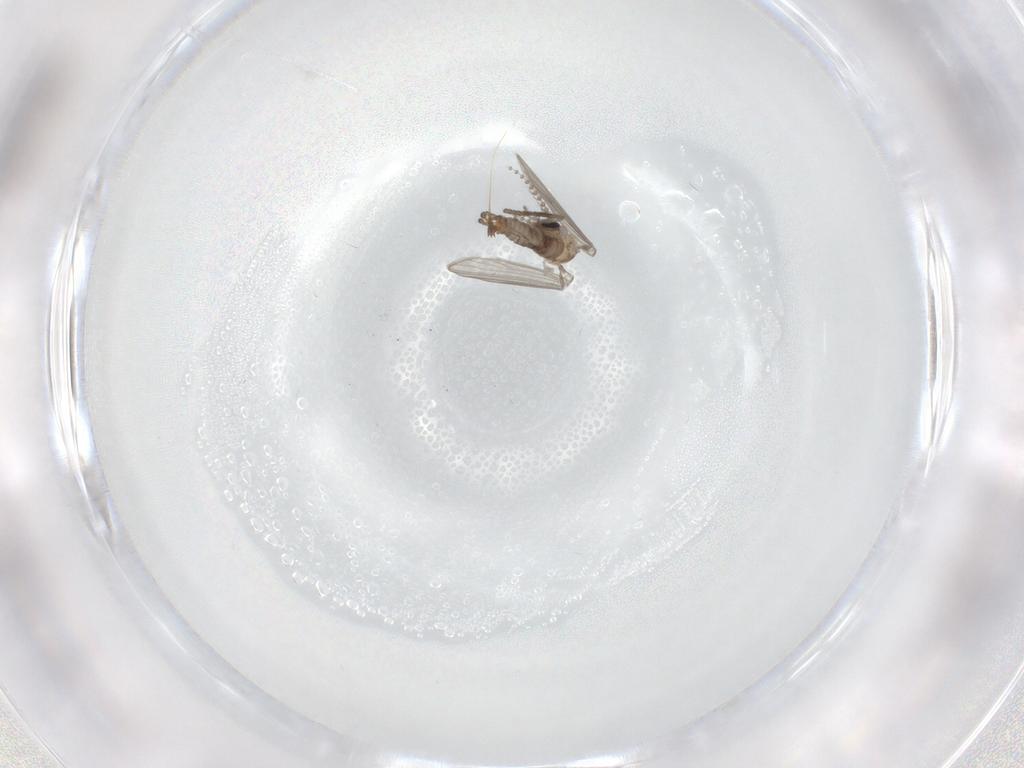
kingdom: Animalia
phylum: Arthropoda
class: Insecta
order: Diptera
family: Psychodidae
